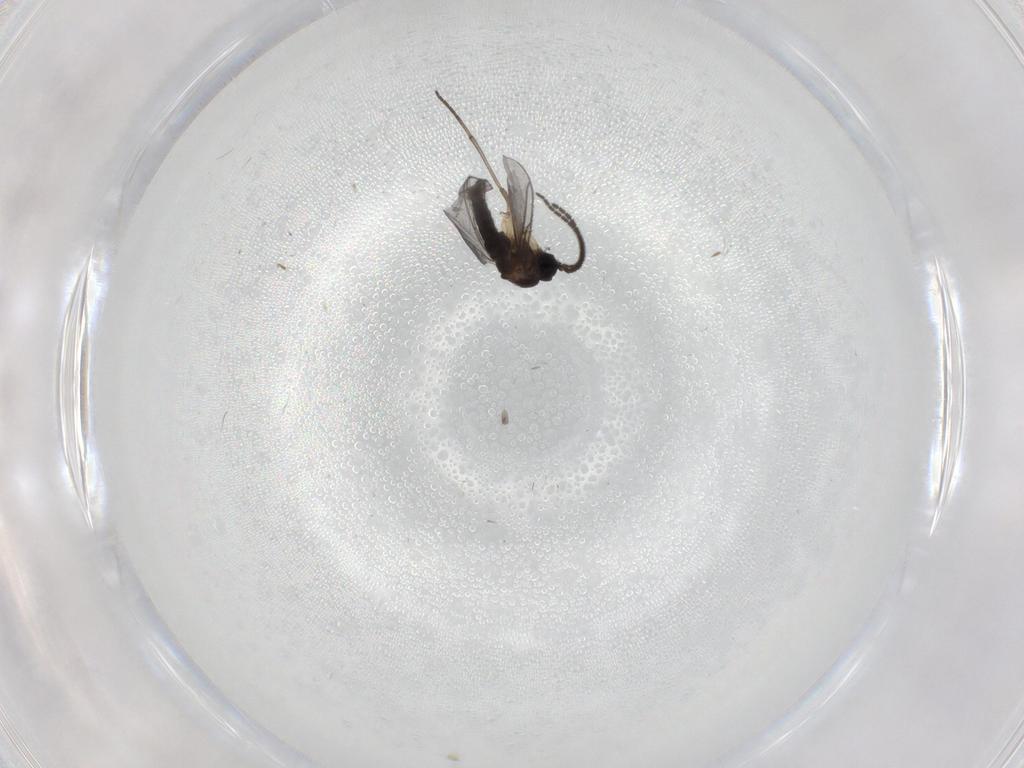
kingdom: Animalia
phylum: Arthropoda
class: Insecta
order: Diptera
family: Sciaridae
